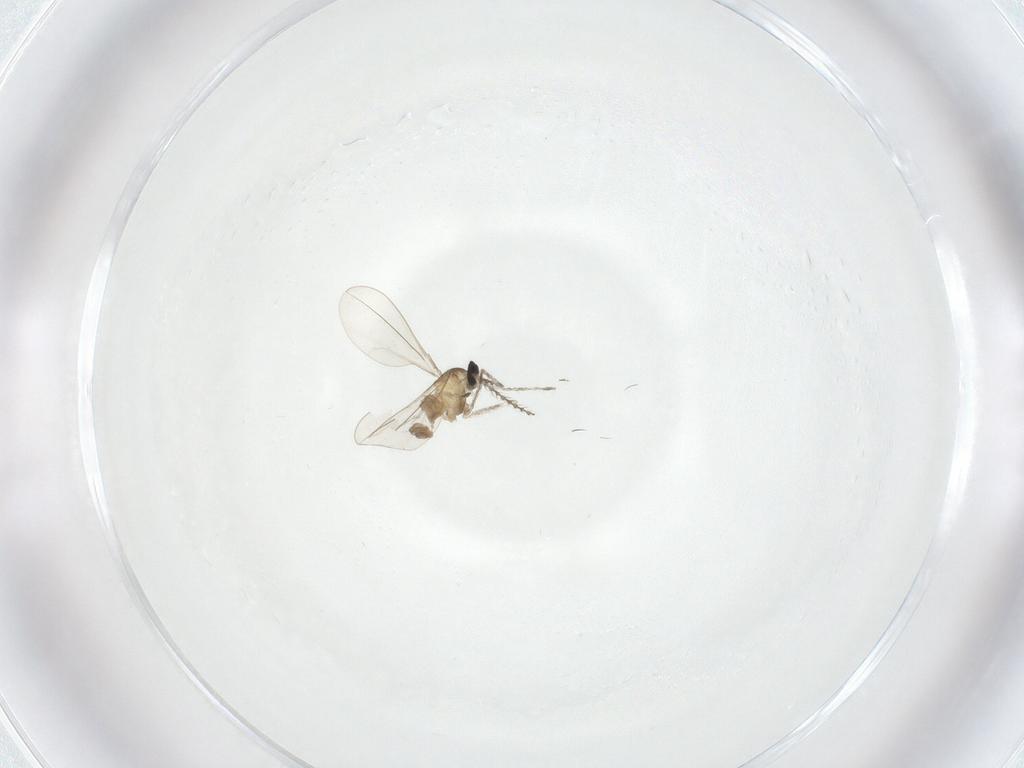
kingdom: Animalia
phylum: Arthropoda
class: Insecta
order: Diptera
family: Cecidomyiidae
